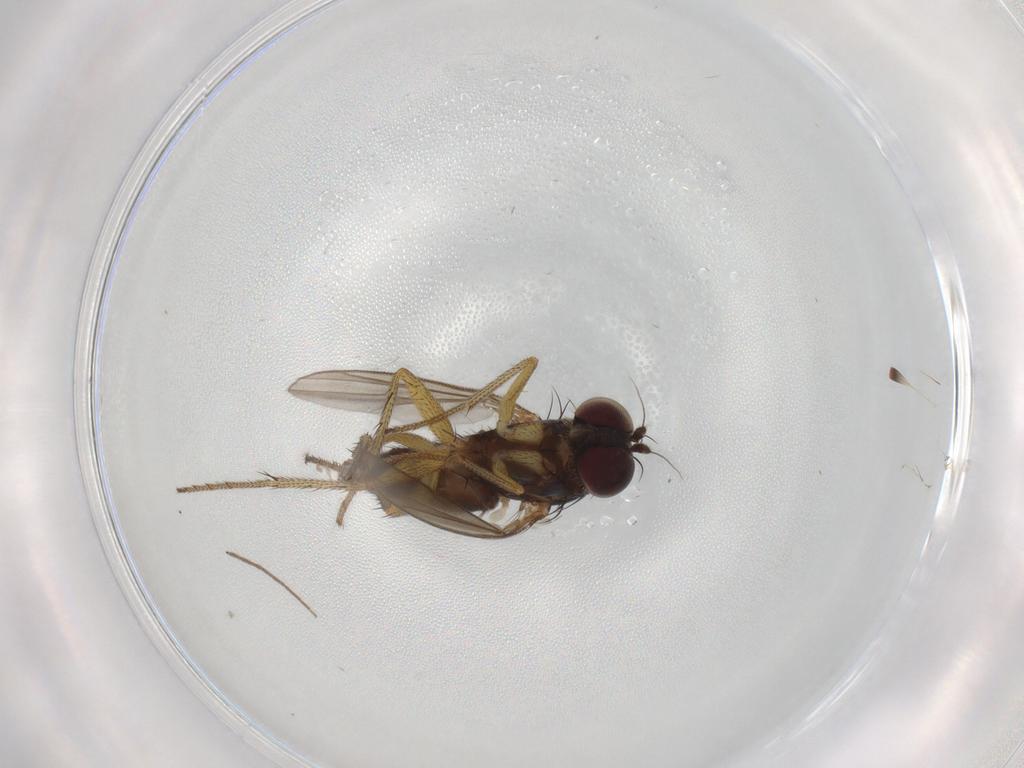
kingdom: Animalia
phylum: Arthropoda
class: Insecta
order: Diptera
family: Dolichopodidae
